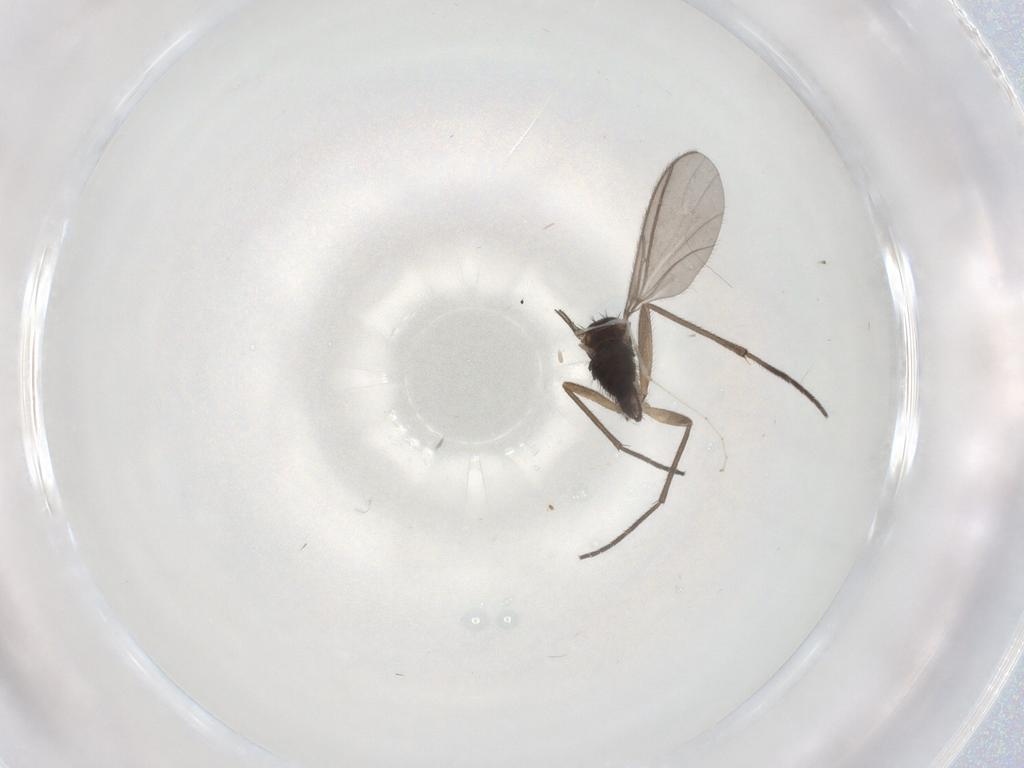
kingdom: Animalia
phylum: Arthropoda
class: Insecta
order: Diptera
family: Sciaridae
